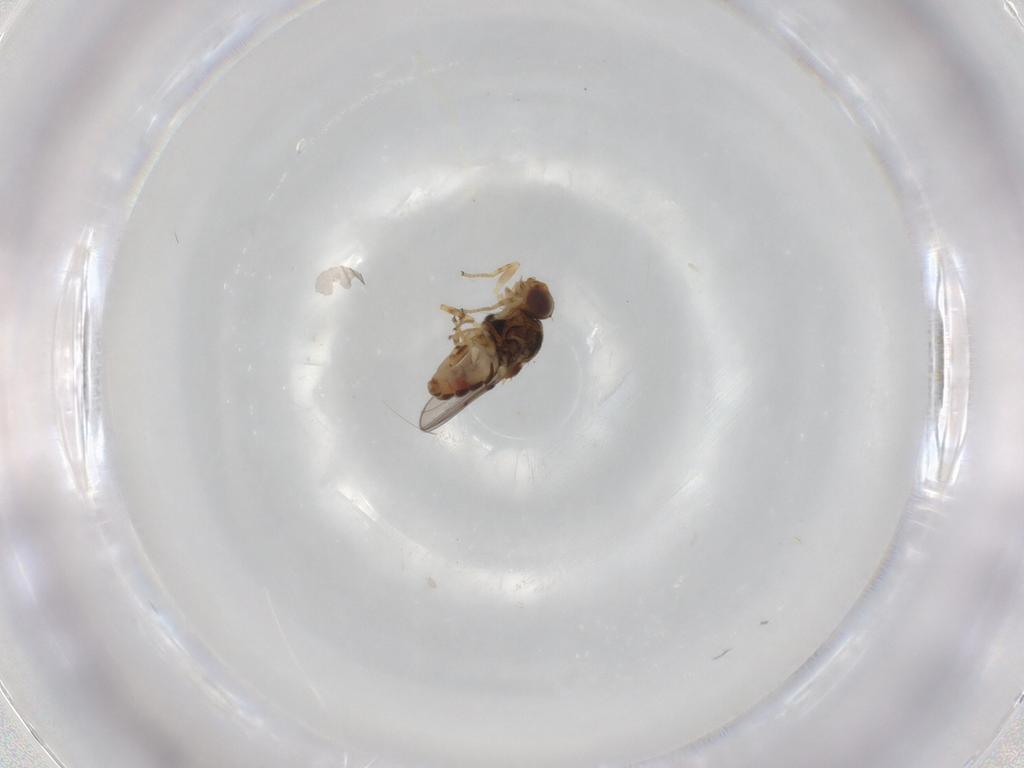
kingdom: Animalia
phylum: Arthropoda
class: Insecta
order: Diptera
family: Chloropidae
